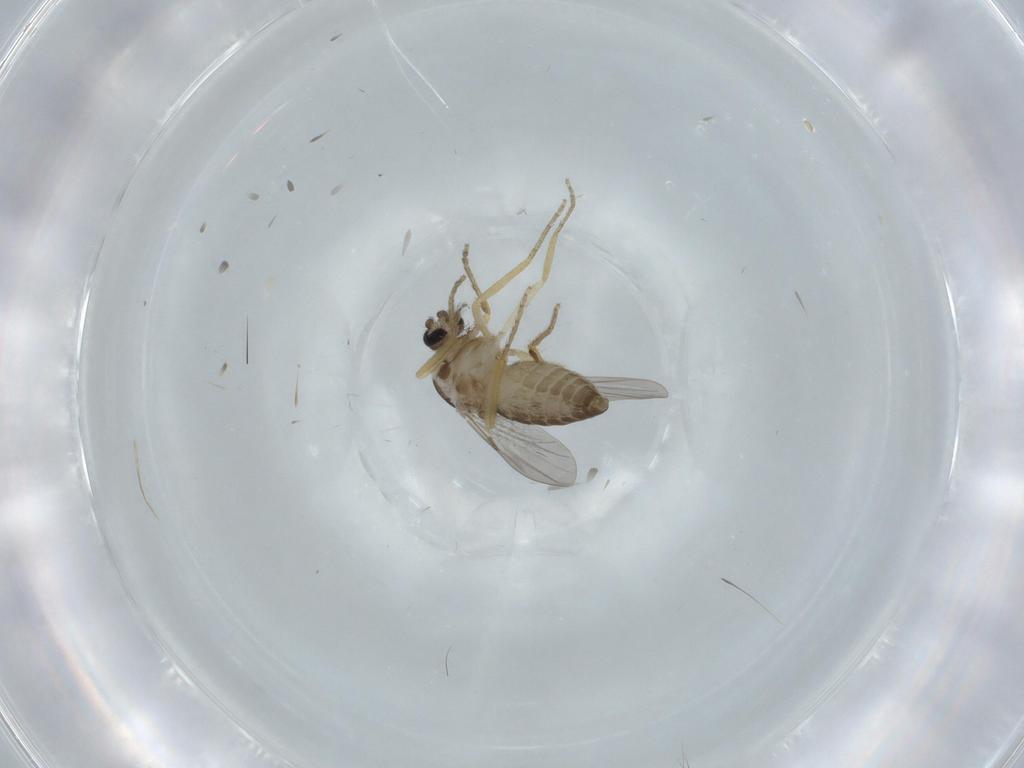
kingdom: Animalia
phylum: Arthropoda
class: Insecta
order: Diptera
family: Ceratopogonidae
